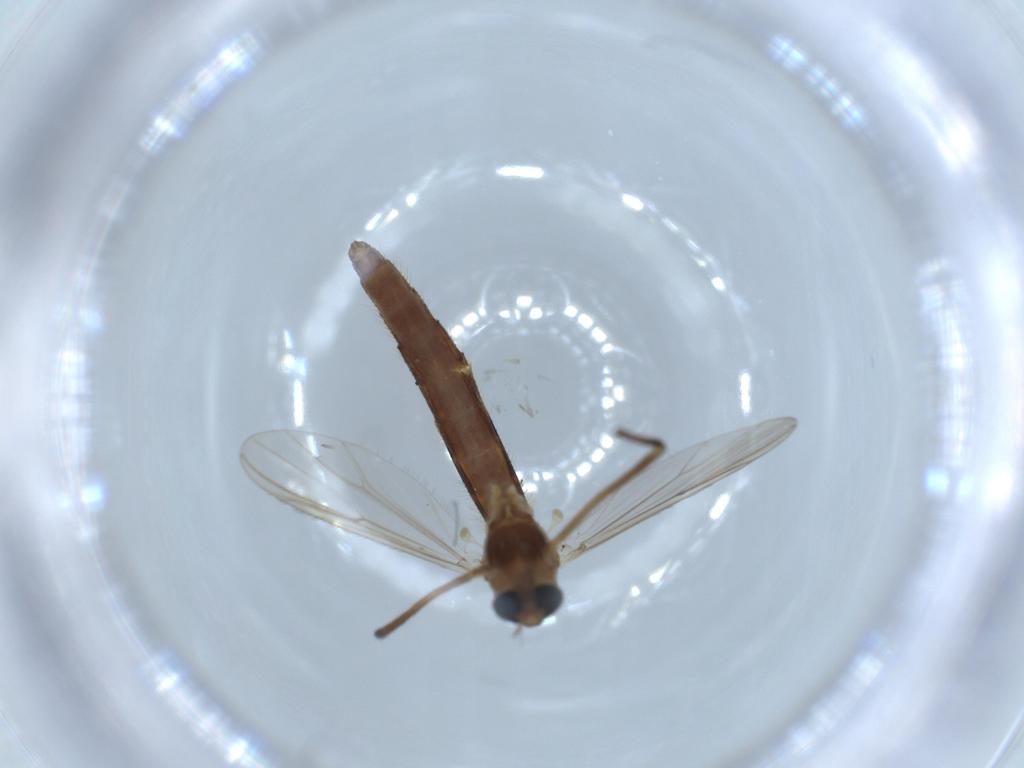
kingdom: Animalia
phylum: Arthropoda
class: Insecta
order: Diptera
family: Chironomidae
